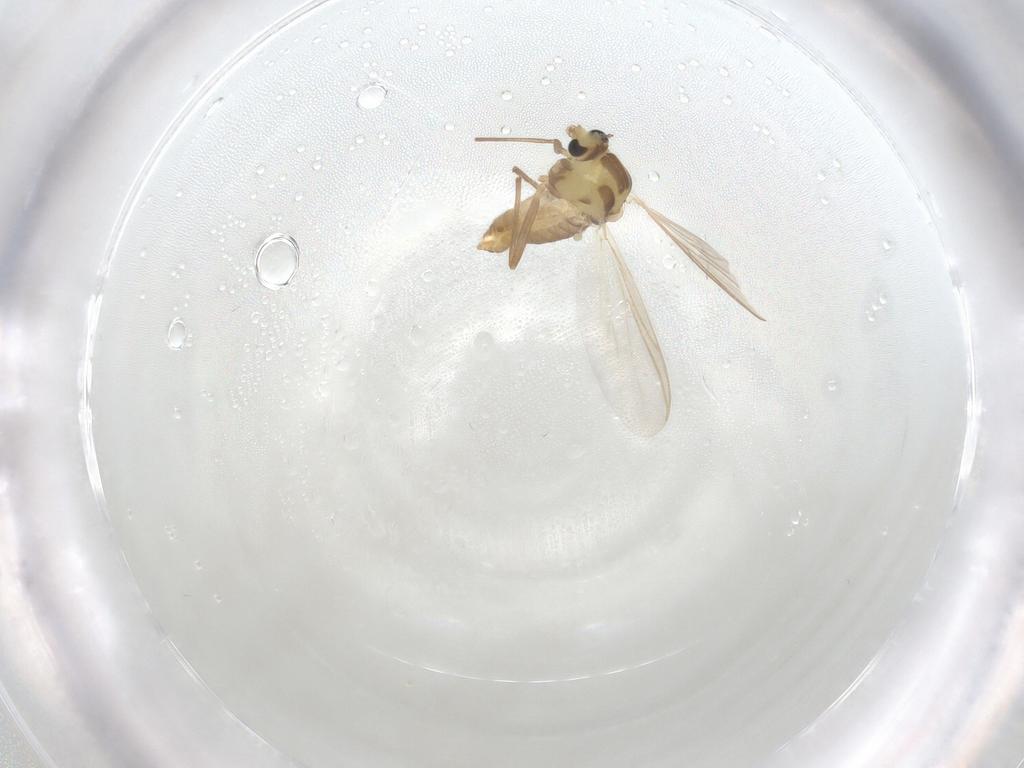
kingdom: Animalia
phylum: Arthropoda
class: Insecta
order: Diptera
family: Chironomidae
